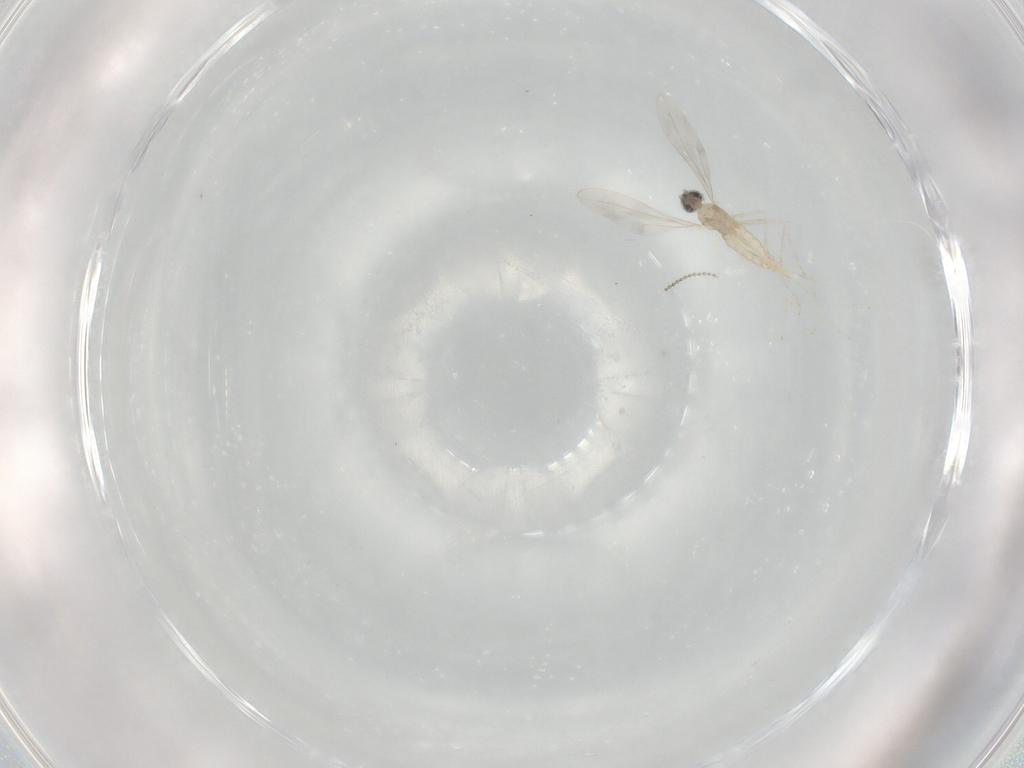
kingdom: Animalia
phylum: Arthropoda
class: Insecta
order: Diptera
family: Cecidomyiidae
